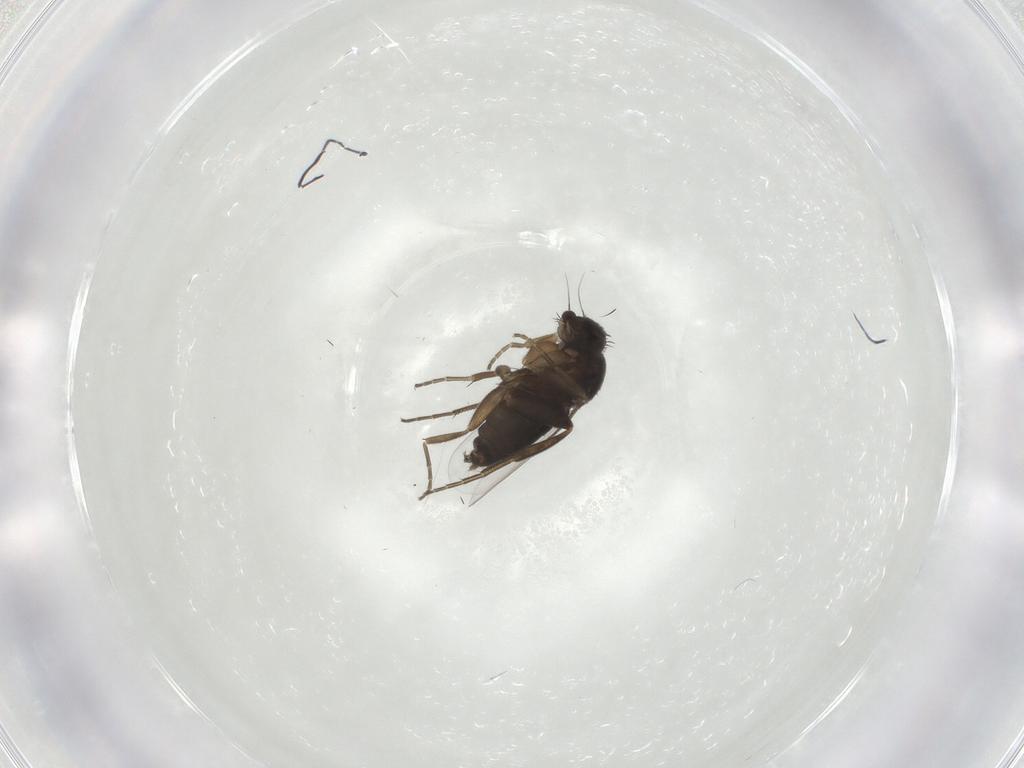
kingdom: Animalia
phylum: Arthropoda
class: Insecta
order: Diptera
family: Phoridae
